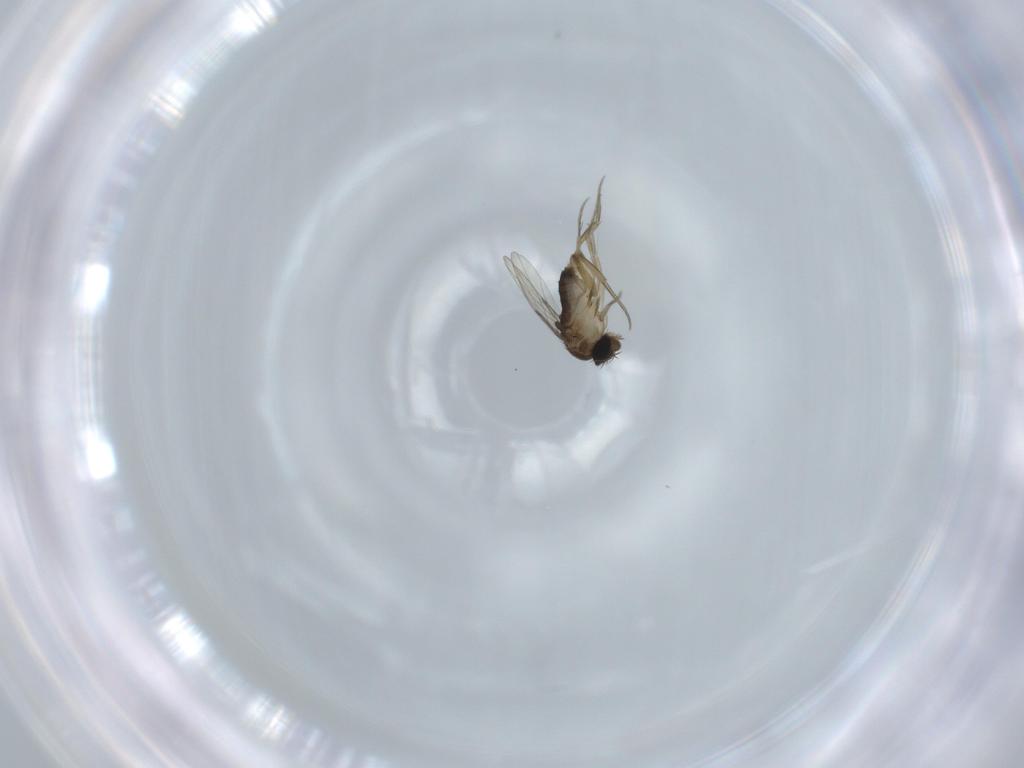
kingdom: Animalia
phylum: Arthropoda
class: Insecta
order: Diptera
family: Phoridae
